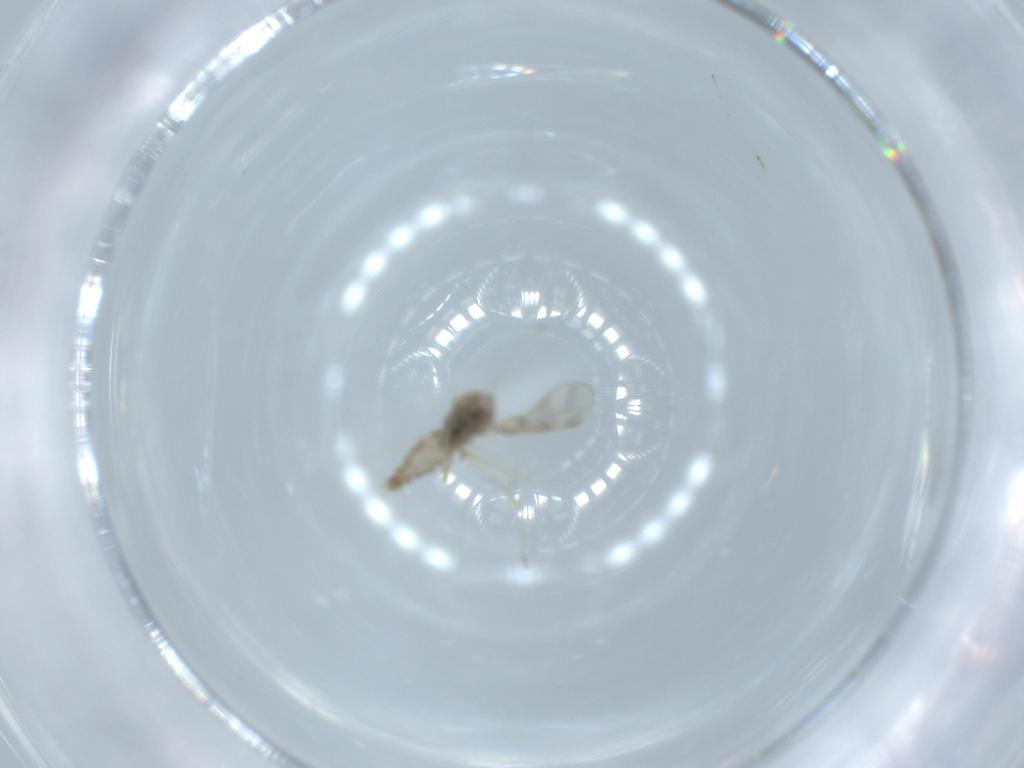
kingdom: Animalia
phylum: Arthropoda
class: Insecta
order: Diptera
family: Cecidomyiidae
